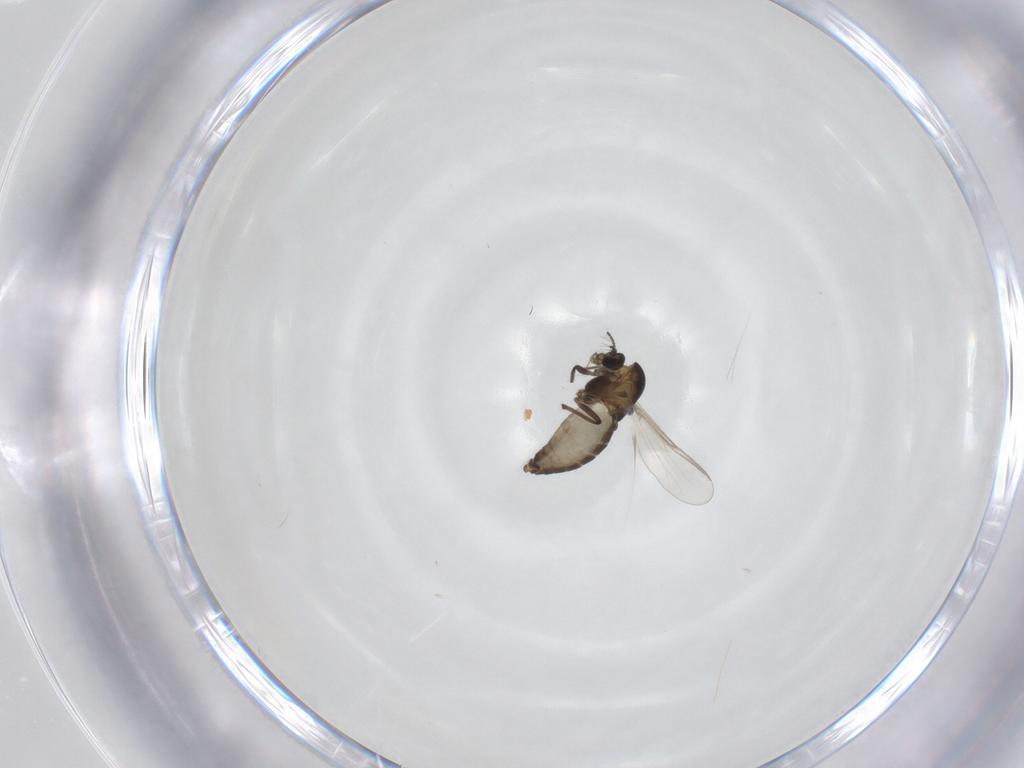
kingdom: Animalia
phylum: Arthropoda
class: Insecta
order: Diptera
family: Chironomidae
